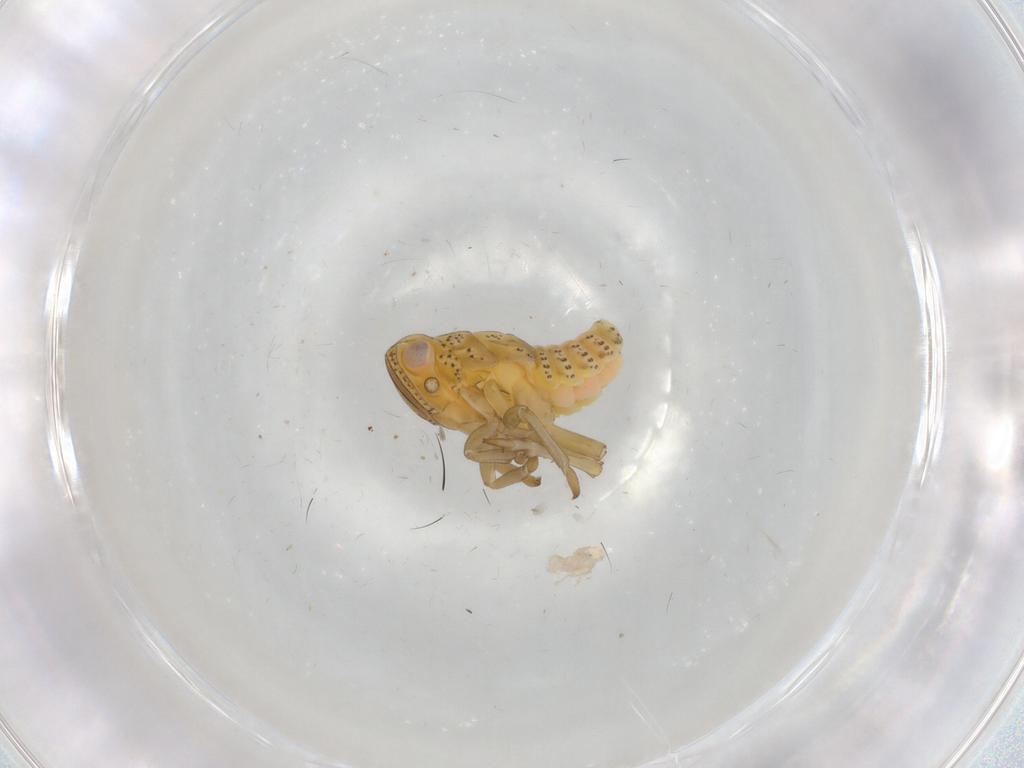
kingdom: Animalia
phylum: Arthropoda
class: Insecta
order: Hemiptera
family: Tropiduchidae
